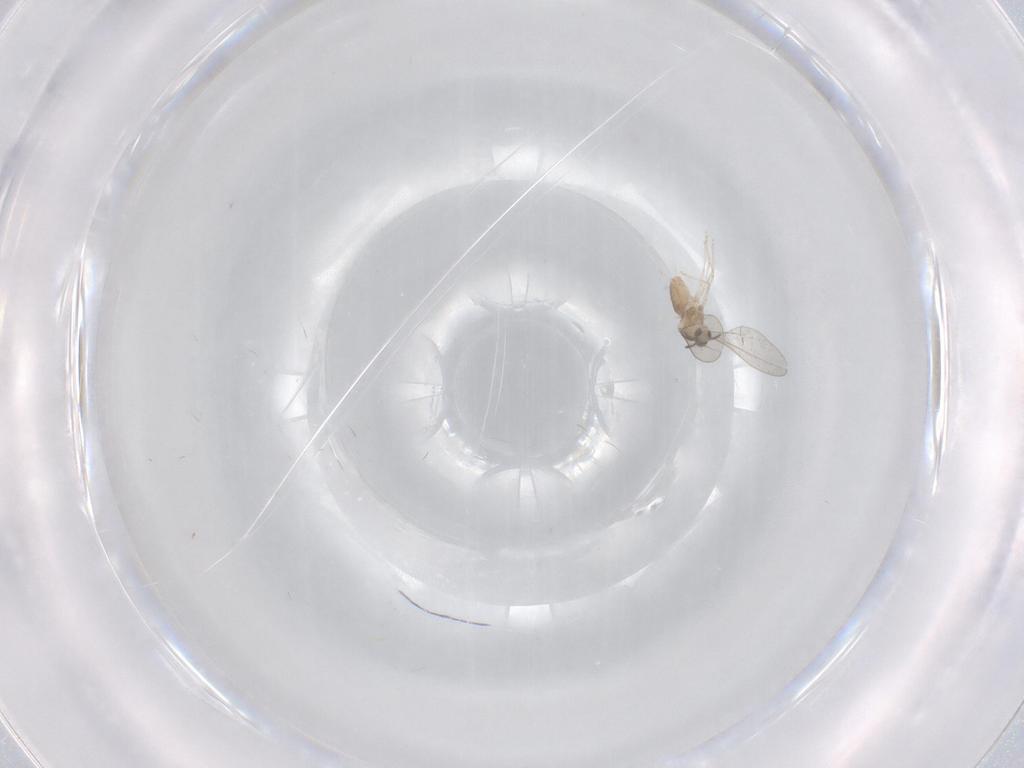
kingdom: Animalia
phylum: Arthropoda
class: Insecta
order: Diptera
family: Cecidomyiidae
